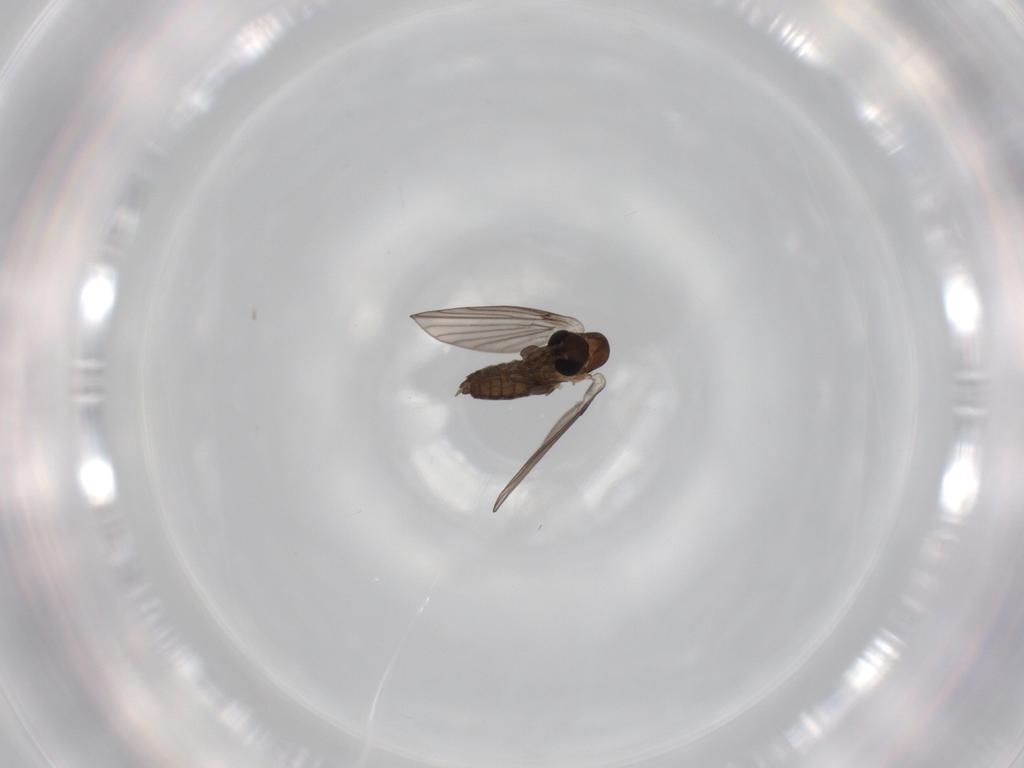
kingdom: Animalia
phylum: Arthropoda
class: Insecta
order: Diptera
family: Psychodidae
